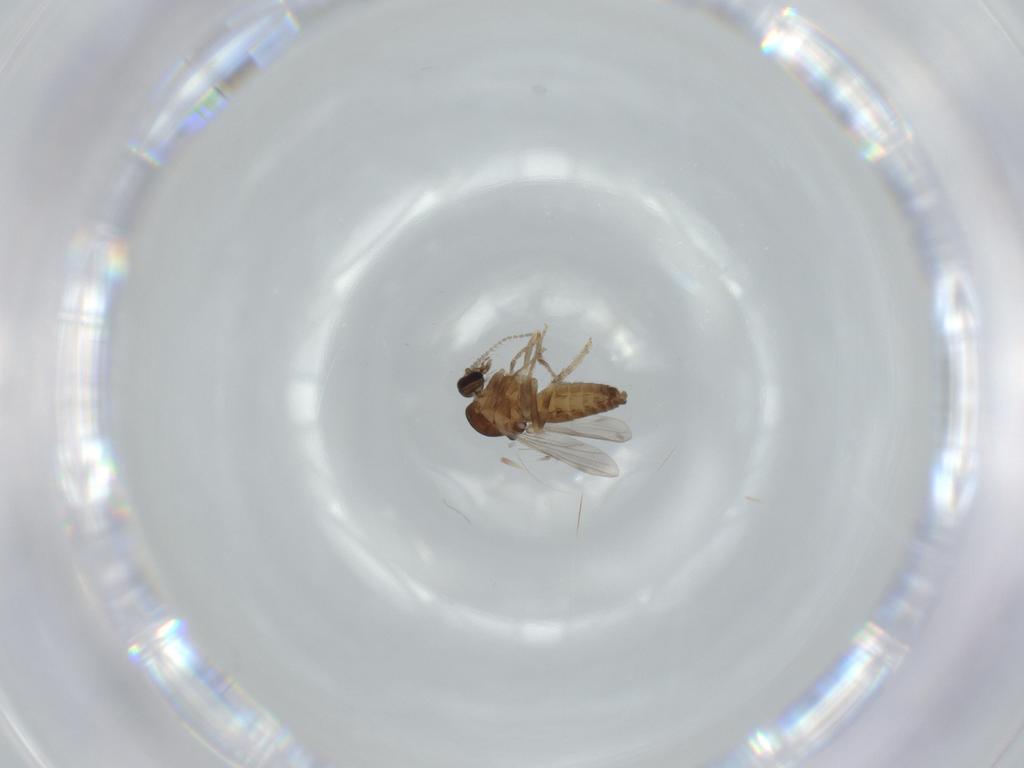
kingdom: Animalia
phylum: Arthropoda
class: Insecta
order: Diptera
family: Ceratopogonidae
